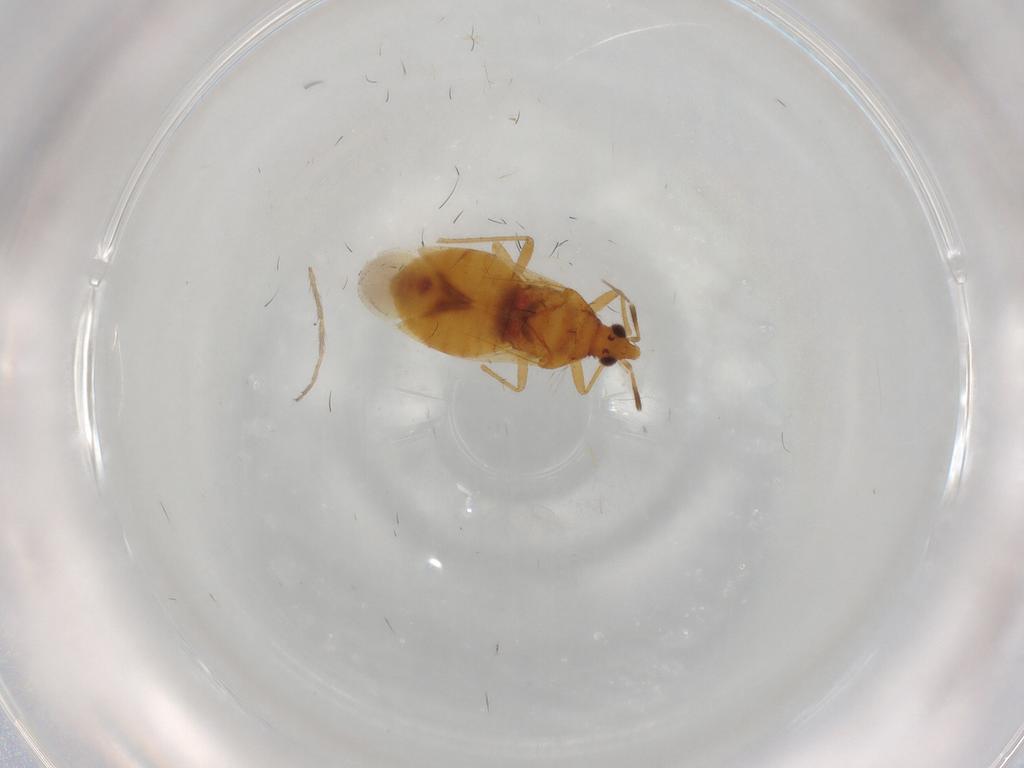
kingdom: Animalia
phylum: Arthropoda
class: Insecta
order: Hemiptera
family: Anthocoridae
